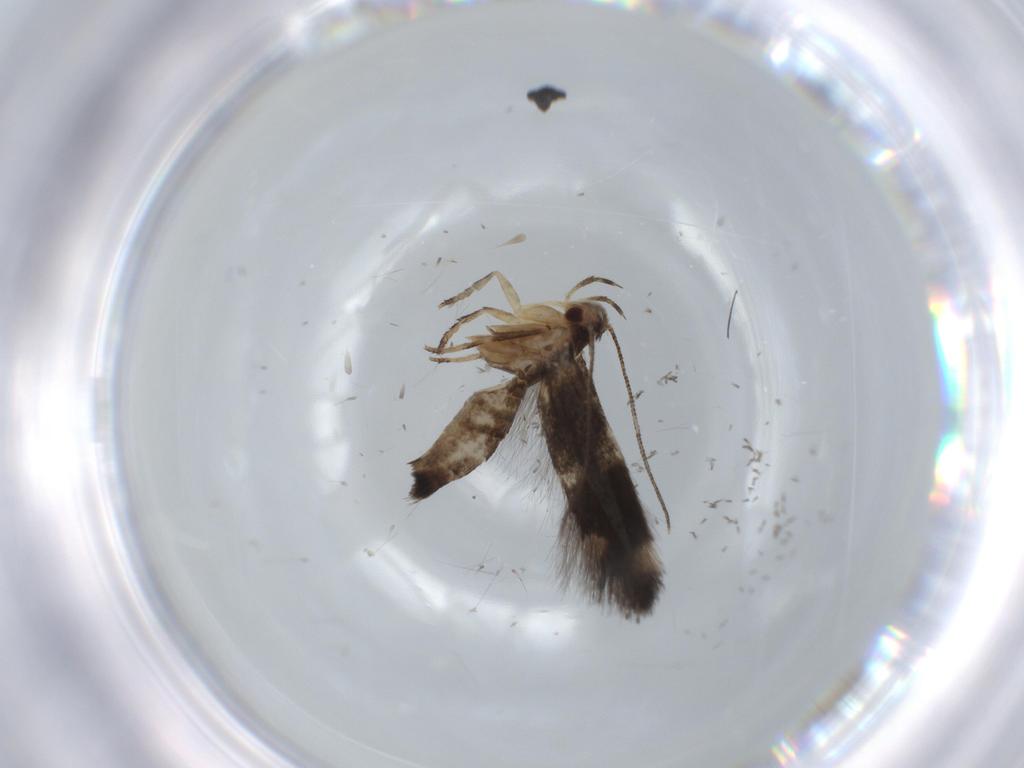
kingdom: Animalia
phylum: Arthropoda
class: Insecta
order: Lepidoptera
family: Cosmopterigidae
